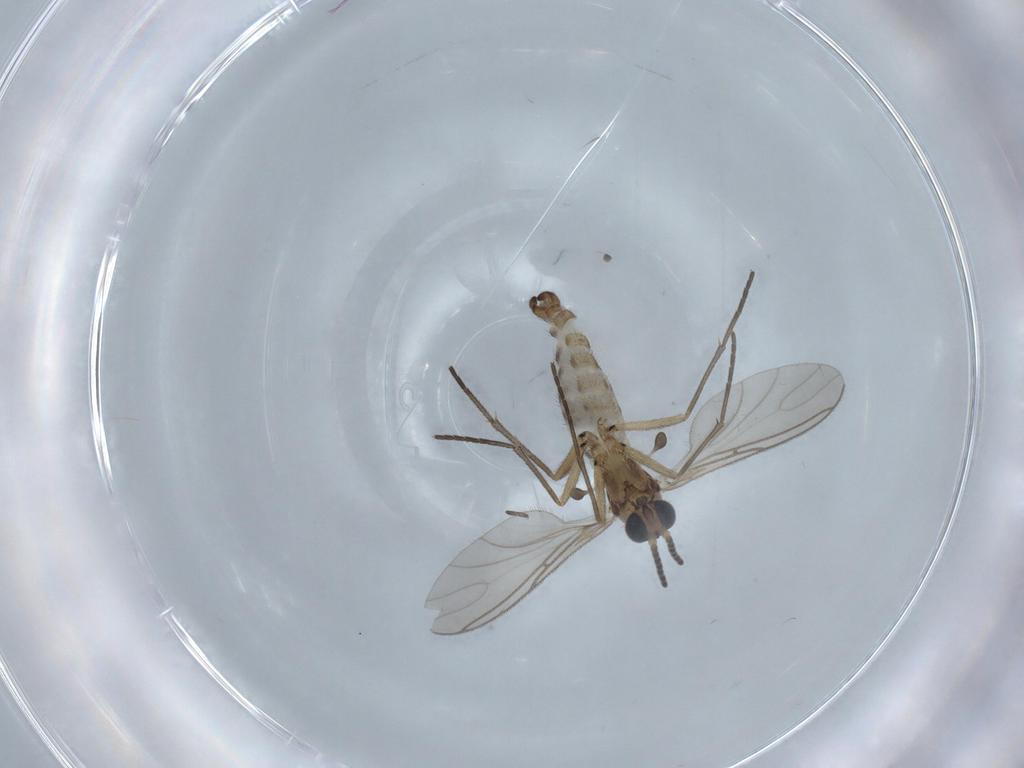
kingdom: Animalia
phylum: Arthropoda
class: Insecta
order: Diptera
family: Sciaridae
